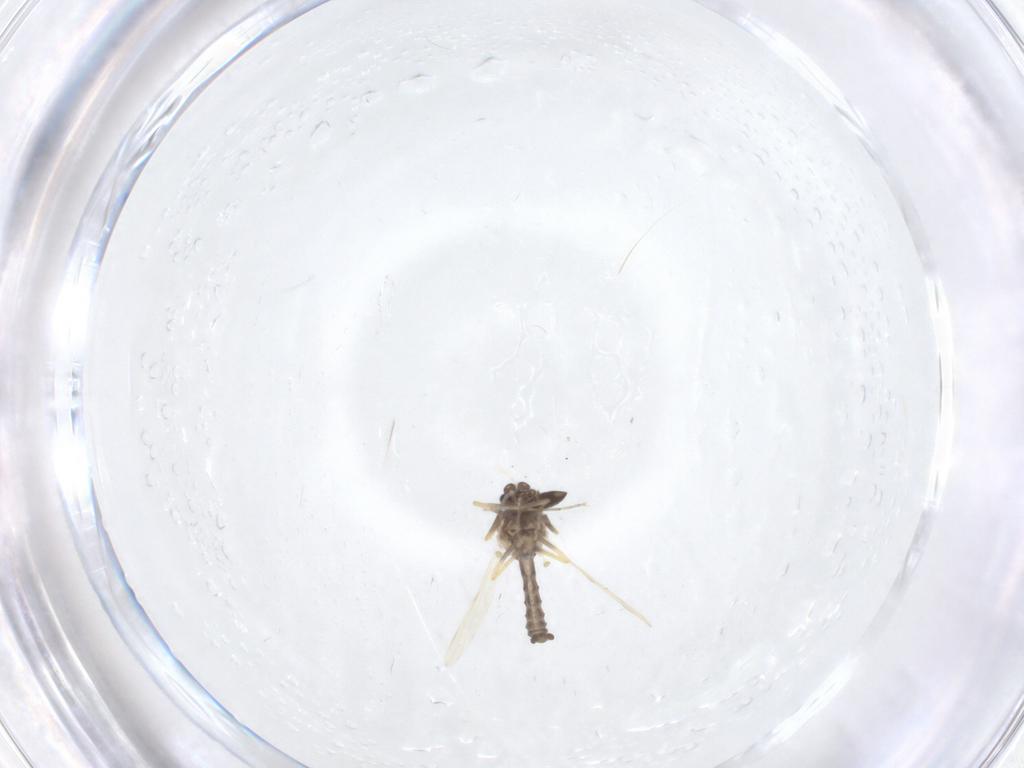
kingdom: Animalia
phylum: Arthropoda
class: Insecta
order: Diptera
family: Ceratopogonidae
